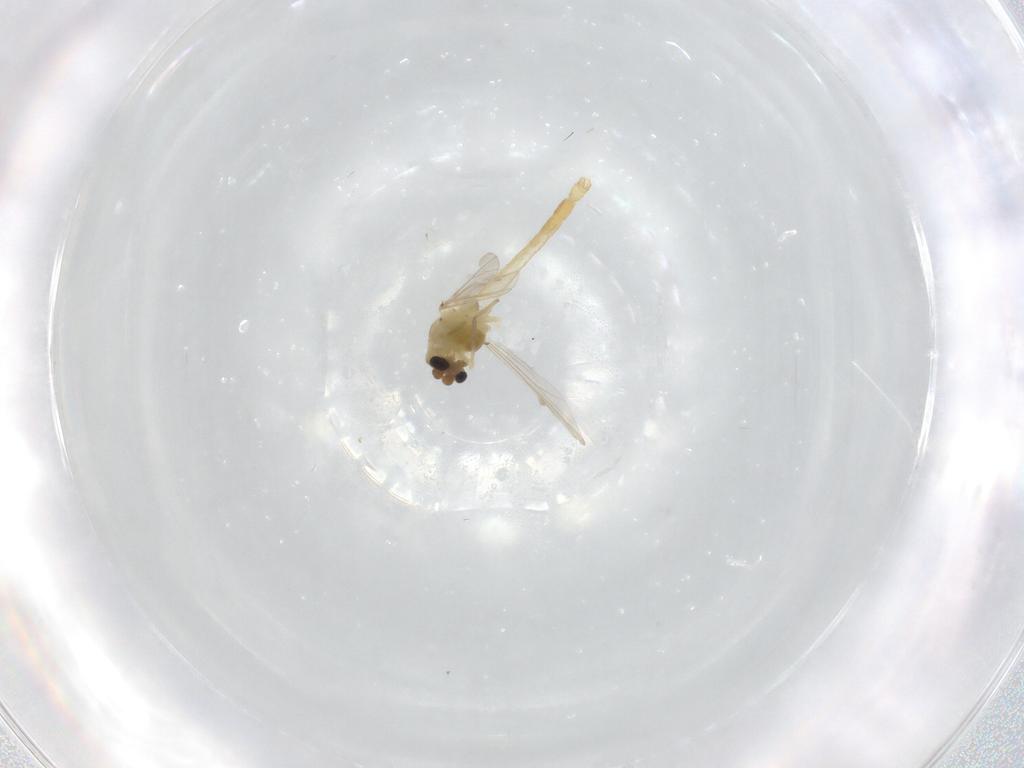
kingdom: Animalia
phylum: Arthropoda
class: Insecta
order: Diptera
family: Chironomidae
